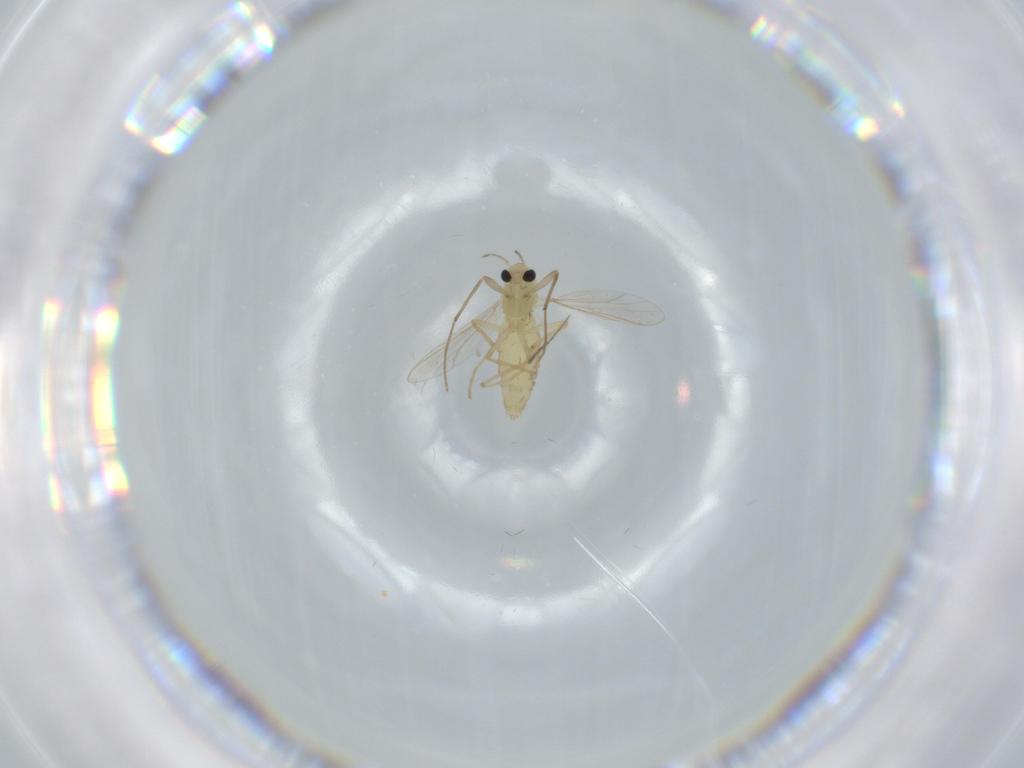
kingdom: Animalia
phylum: Arthropoda
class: Insecta
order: Diptera
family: Chironomidae
